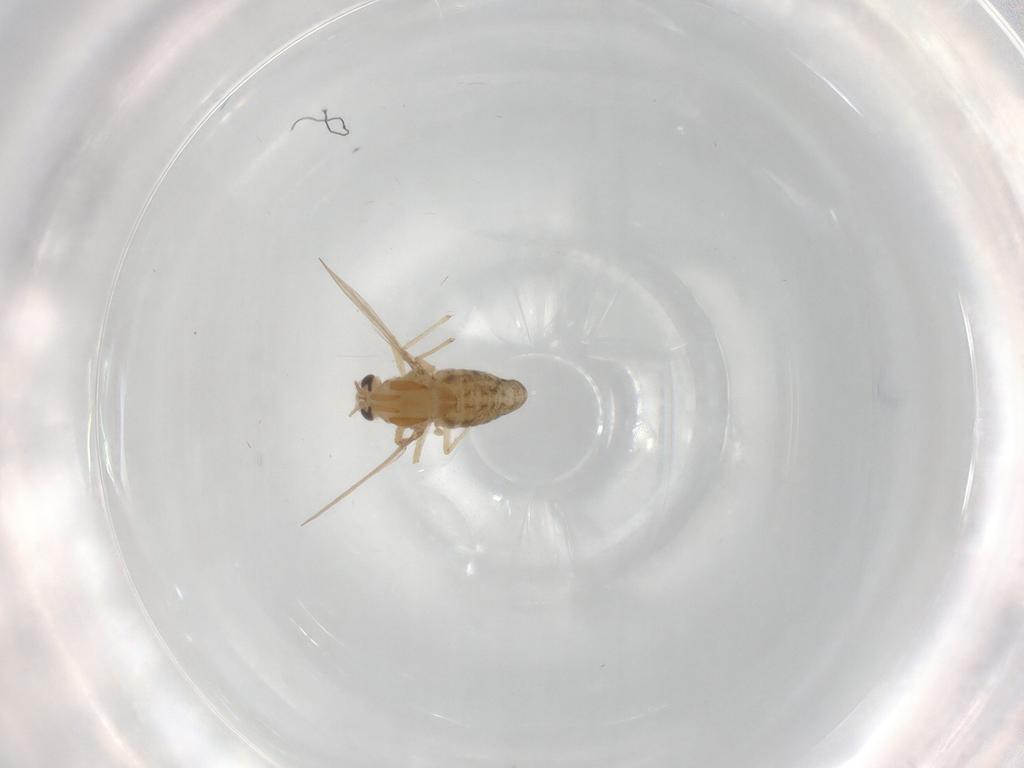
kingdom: Animalia
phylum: Arthropoda
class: Insecta
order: Diptera
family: Chironomidae
